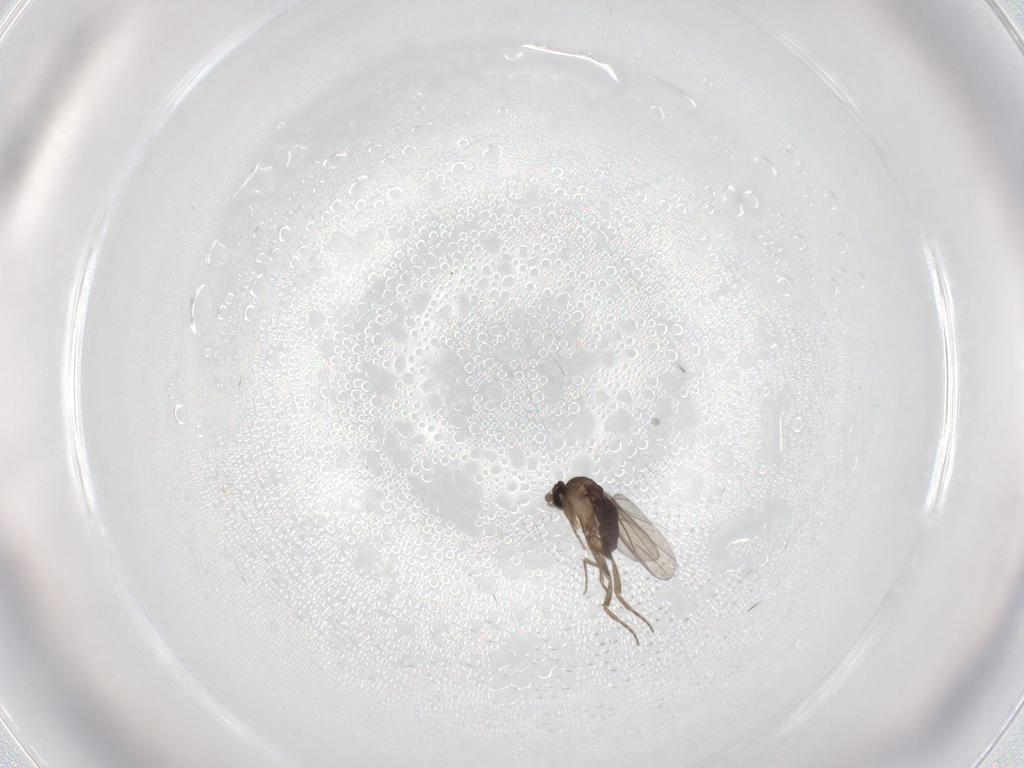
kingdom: Animalia
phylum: Arthropoda
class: Insecta
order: Diptera
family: Phoridae
